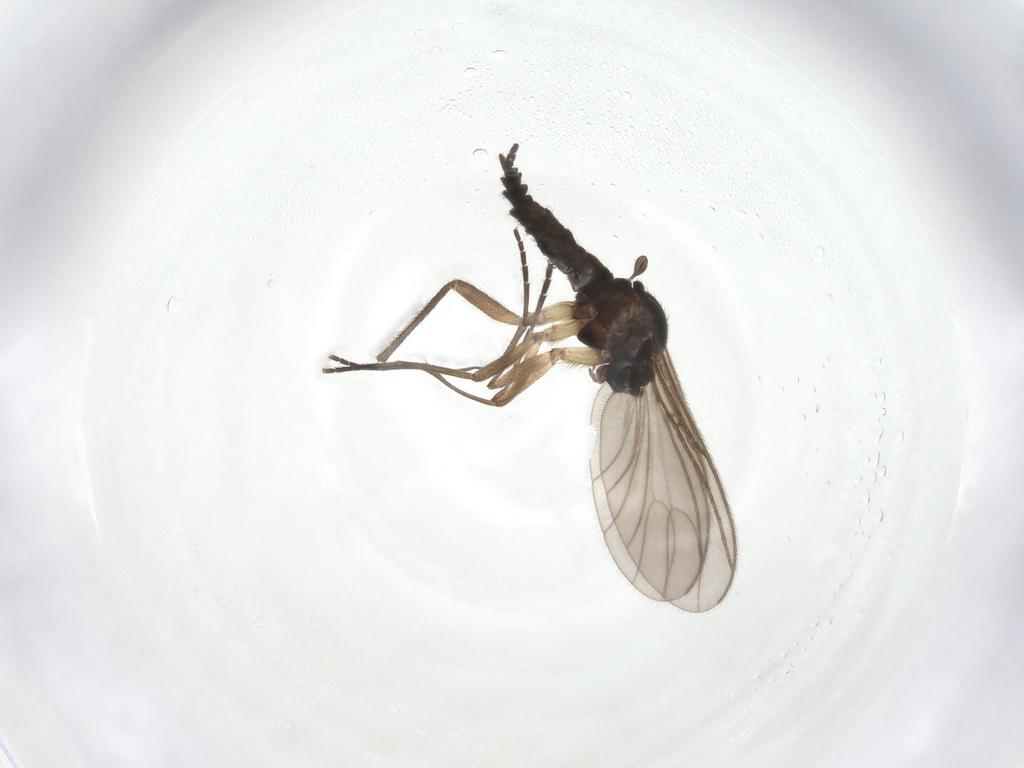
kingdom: Animalia
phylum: Arthropoda
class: Insecta
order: Diptera
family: Sciaridae
